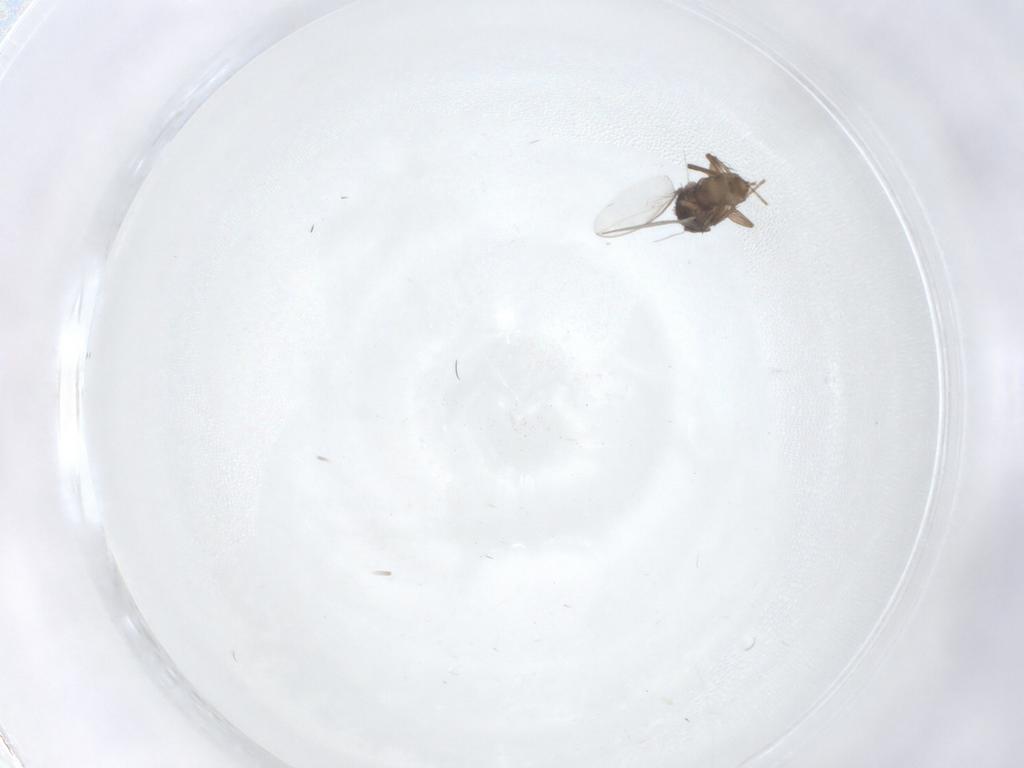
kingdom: Animalia
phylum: Arthropoda
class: Insecta
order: Diptera
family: Sphaeroceridae
